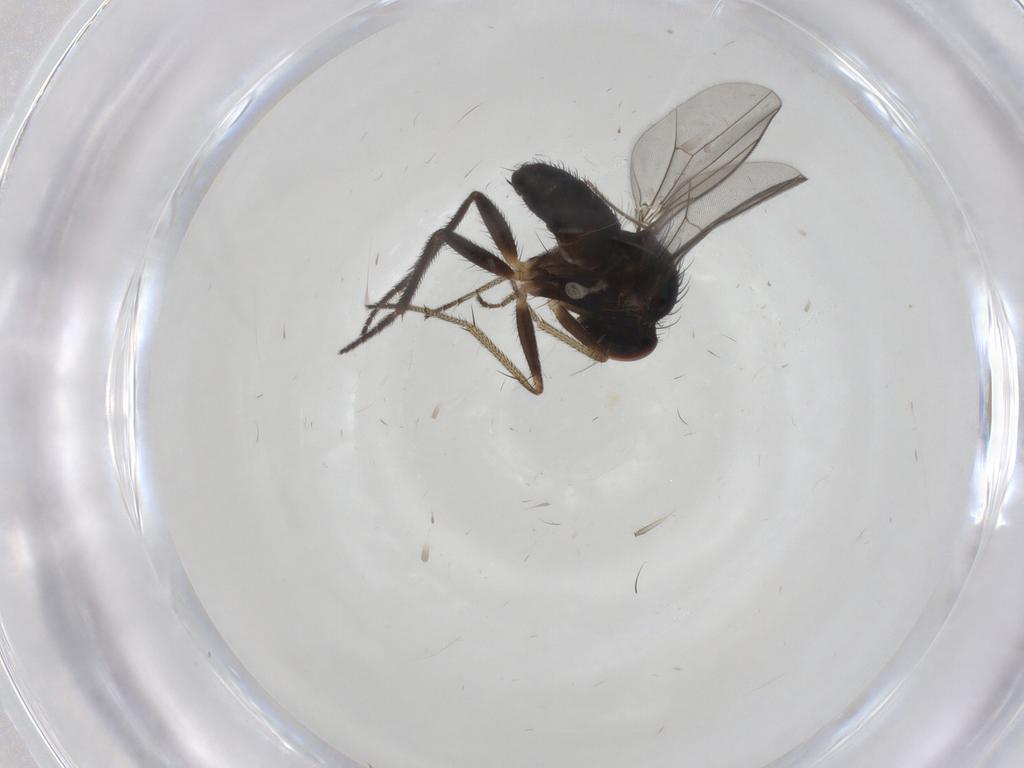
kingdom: Animalia
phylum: Arthropoda
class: Insecta
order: Diptera
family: Dolichopodidae
